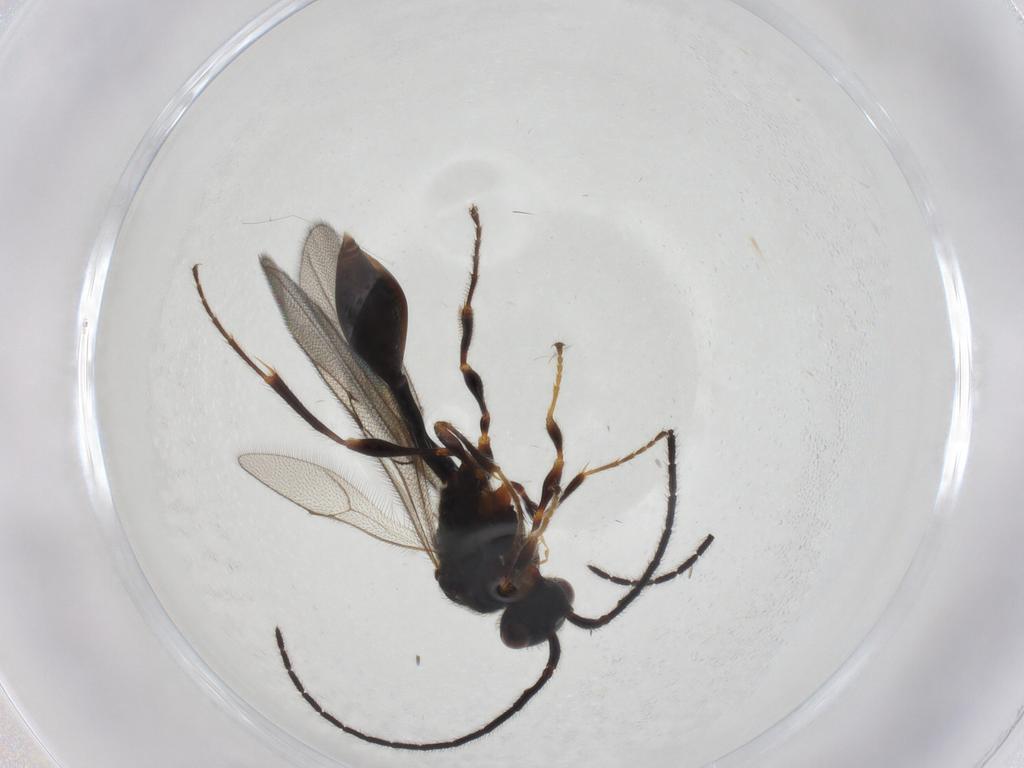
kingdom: Animalia
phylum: Arthropoda
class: Insecta
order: Hymenoptera
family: Diapriidae
